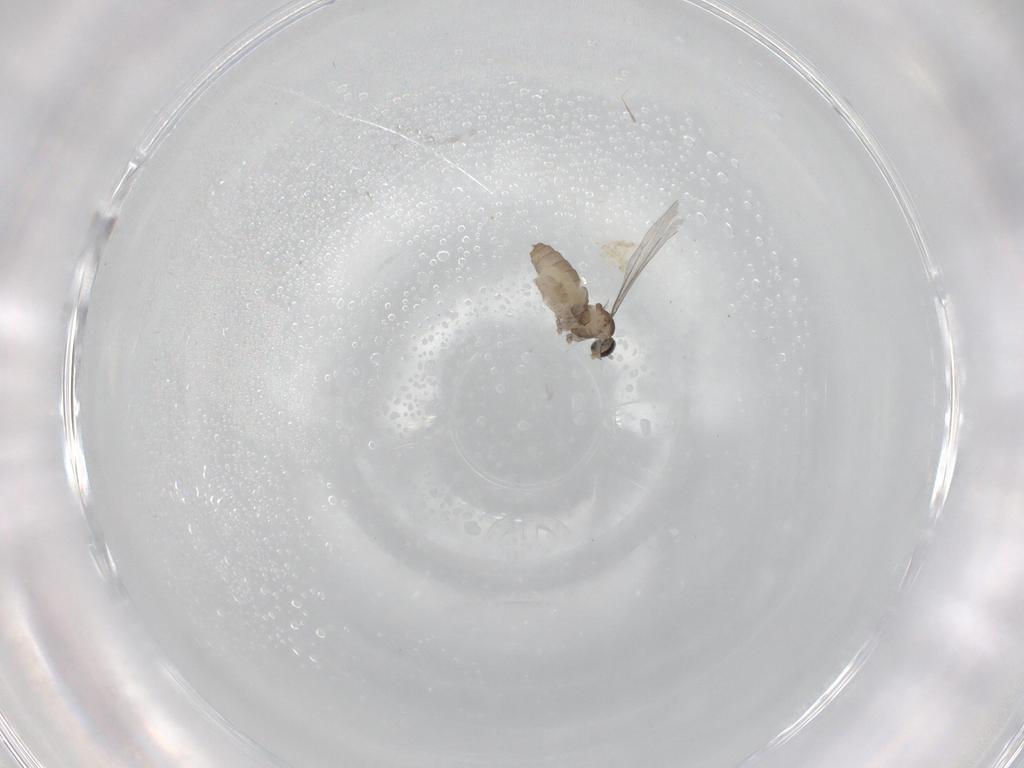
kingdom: Animalia
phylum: Arthropoda
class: Insecta
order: Diptera
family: Cecidomyiidae
